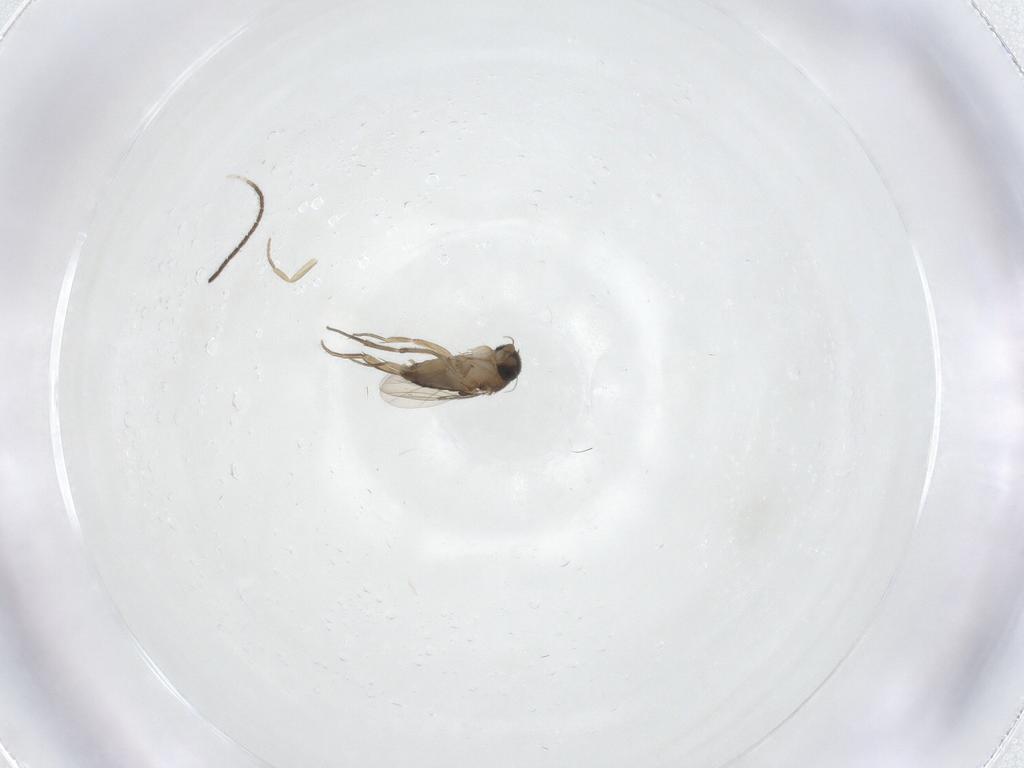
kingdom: Animalia
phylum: Arthropoda
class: Insecta
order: Diptera
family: Phoridae
